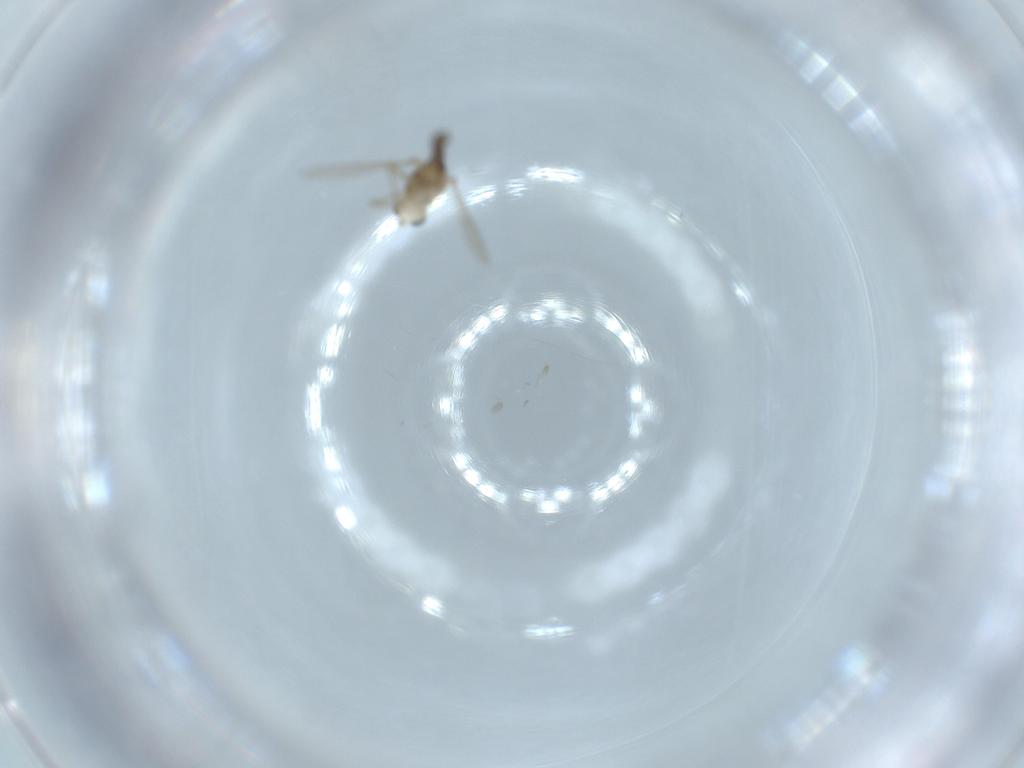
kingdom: Animalia
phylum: Arthropoda
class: Insecta
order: Diptera
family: Chironomidae
